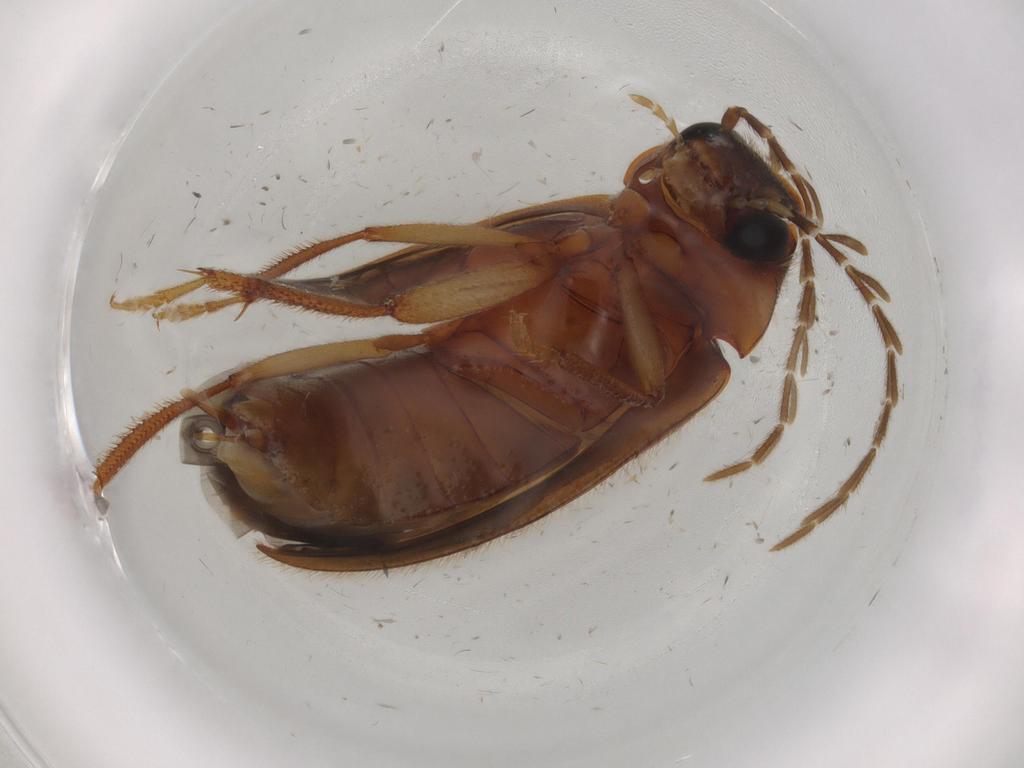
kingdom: Animalia
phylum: Arthropoda
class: Insecta
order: Coleoptera
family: Ptilodactylidae
